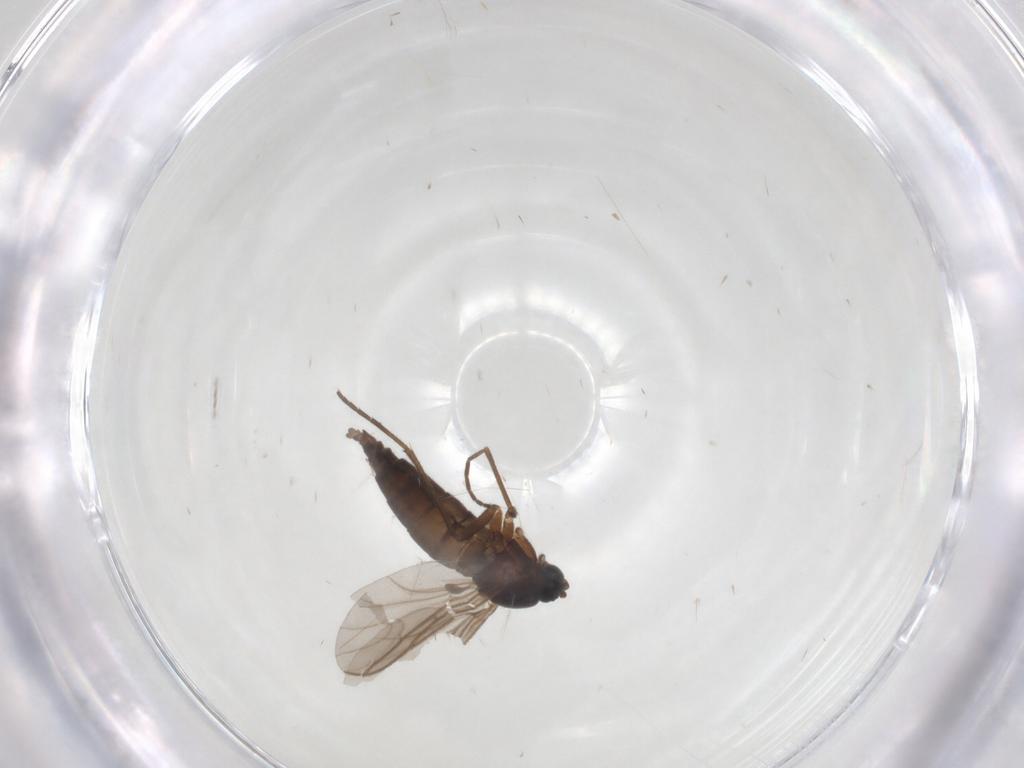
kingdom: Animalia
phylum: Arthropoda
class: Insecta
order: Diptera
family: Sciaridae
